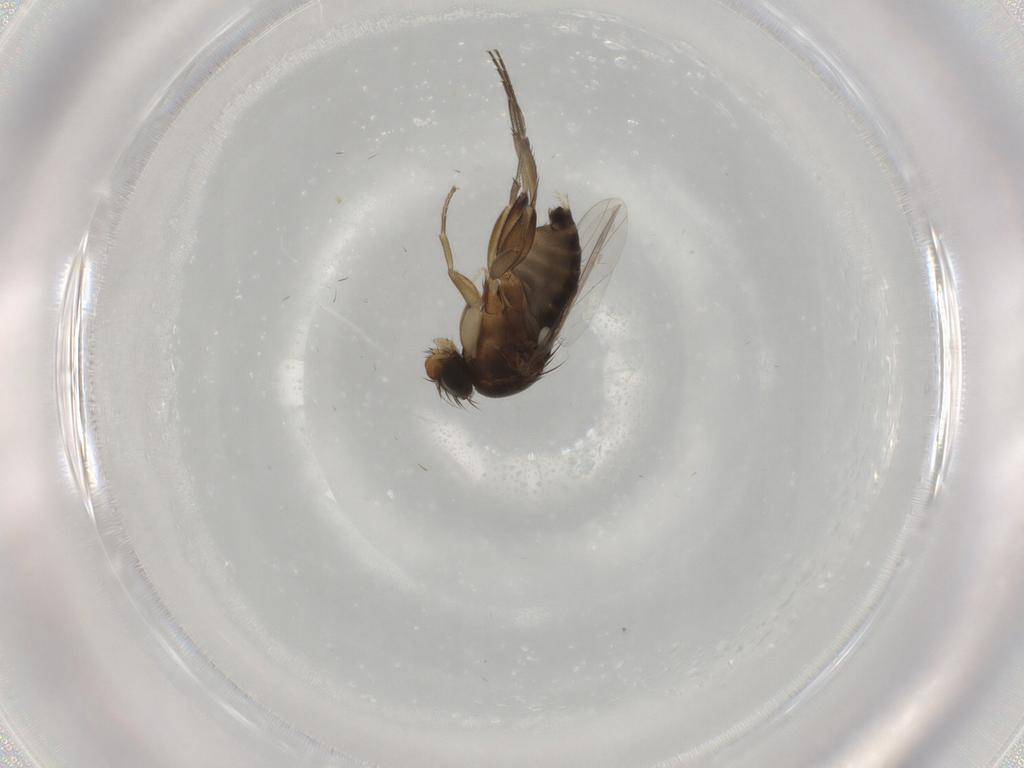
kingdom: Animalia
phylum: Arthropoda
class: Insecta
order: Diptera
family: Phoridae
